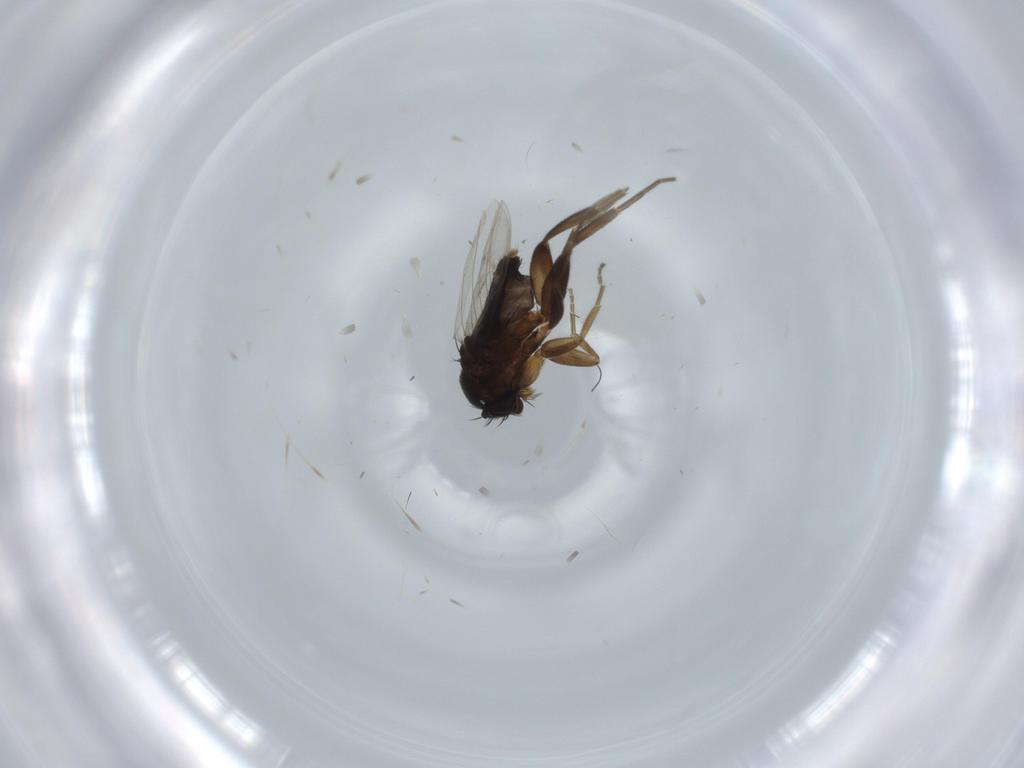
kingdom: Animalia
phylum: Arthropoda
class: Insecta
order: Diptera
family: Phoridae
